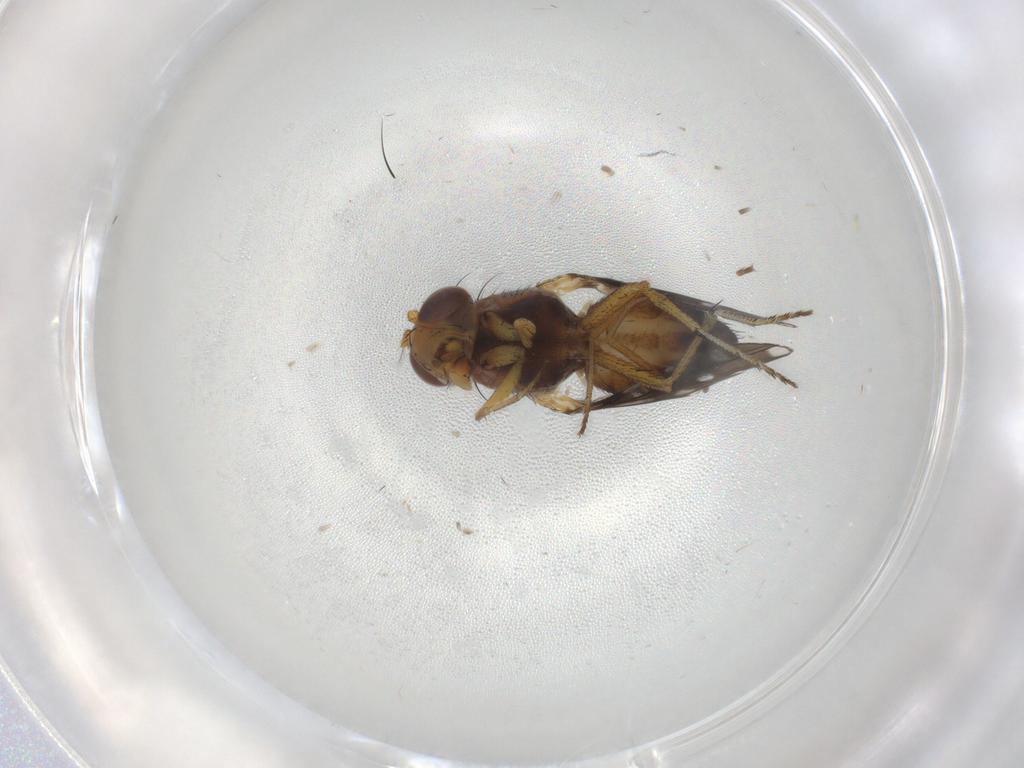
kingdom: Animalia
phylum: Arthropoda
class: Insecta
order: Diptera
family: Ephydridae
